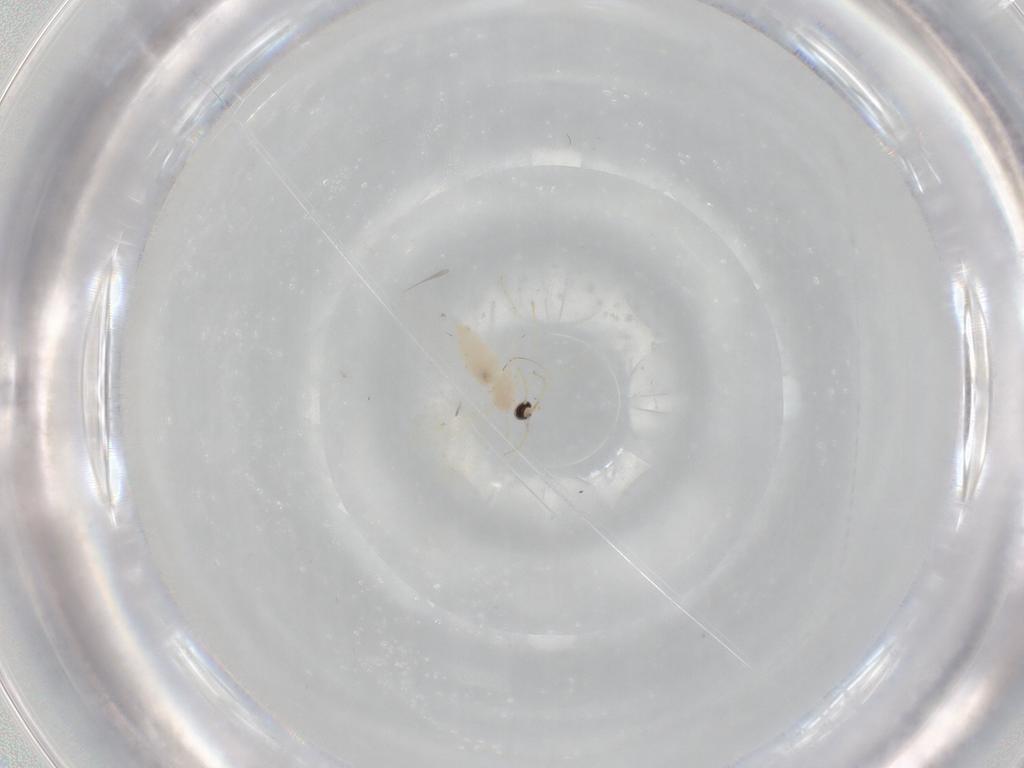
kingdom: Animalia
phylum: Arthropoda
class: Insecta
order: Diptera
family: Cecidomyiidae
